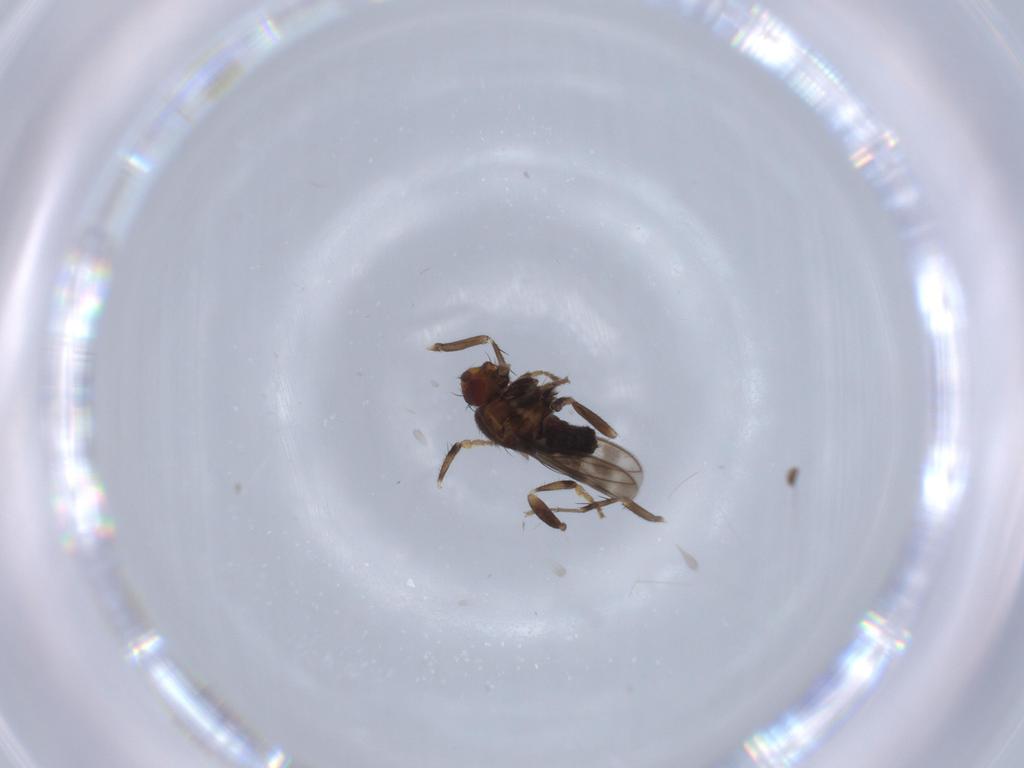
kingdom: Animalia
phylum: Arthropoda
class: Insecta
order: Diptera
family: Sphaeroceridae
